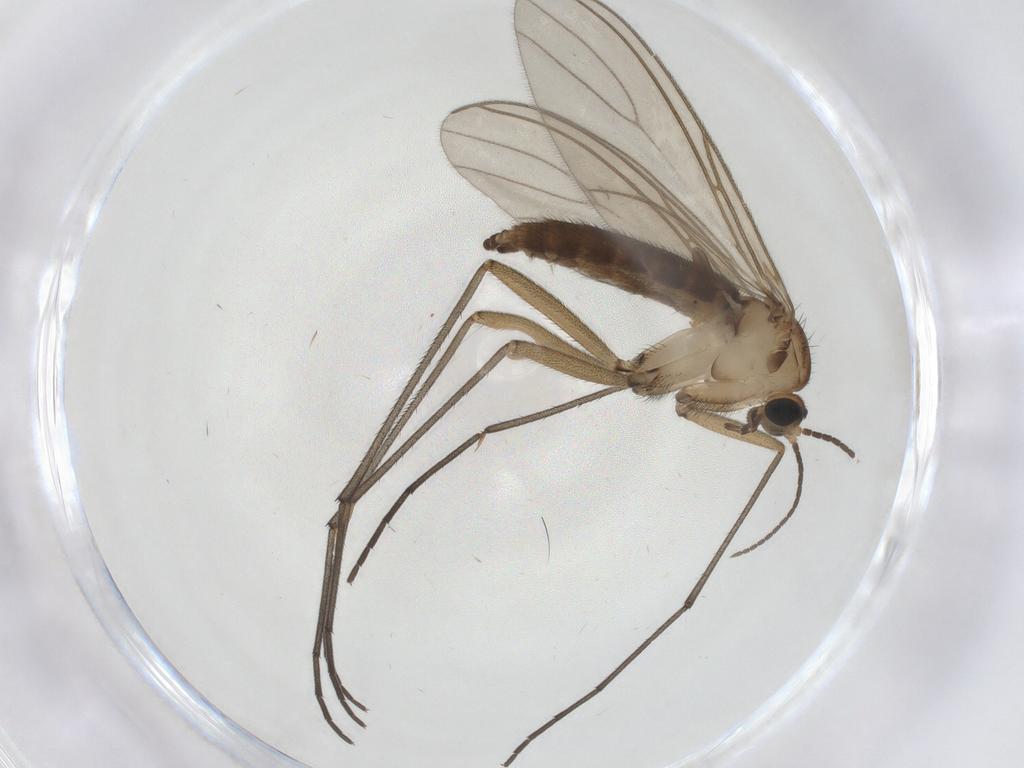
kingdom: Animalia
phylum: Arthropoda
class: Insecta
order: Diptera
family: Sciaridae
